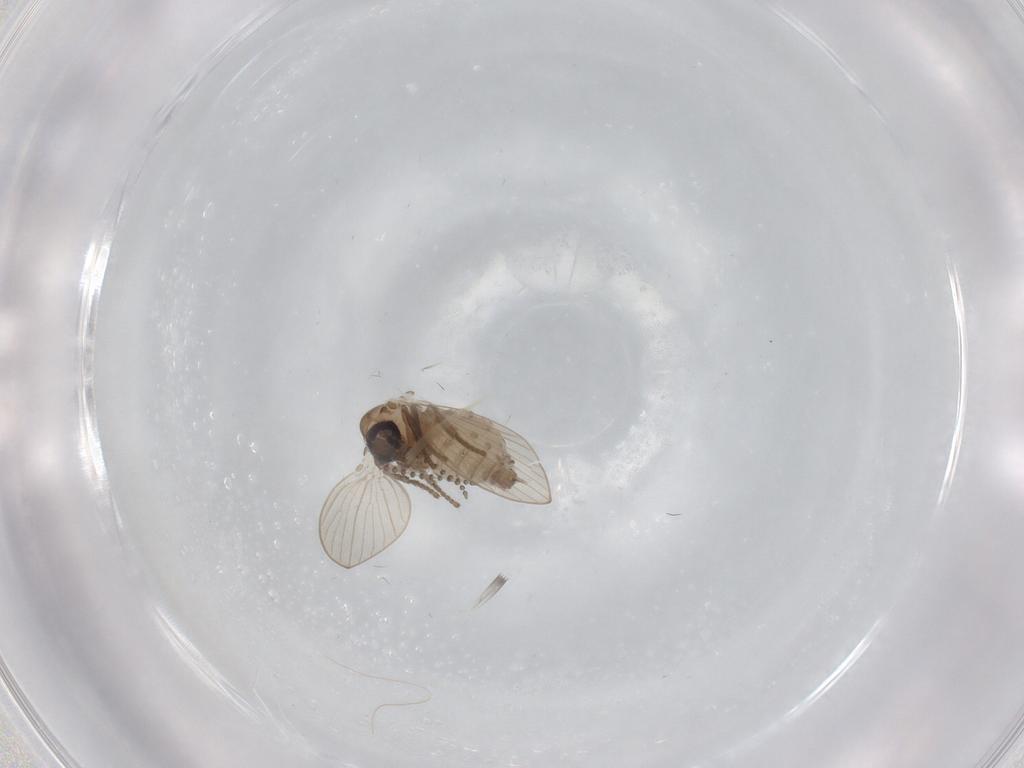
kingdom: Animalia
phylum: Arthropoda
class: Insecta
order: Diptera
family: Psychodidae
